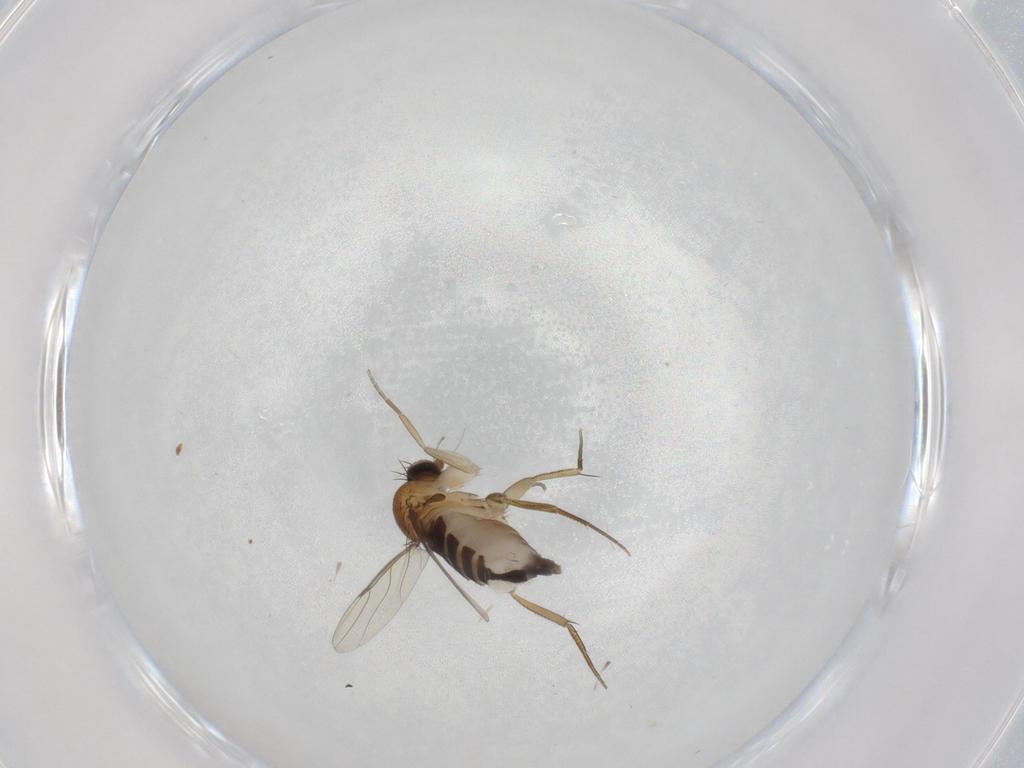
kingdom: Animalia
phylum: Arthropoda
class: Insecta
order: Diptera
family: Phoridae
